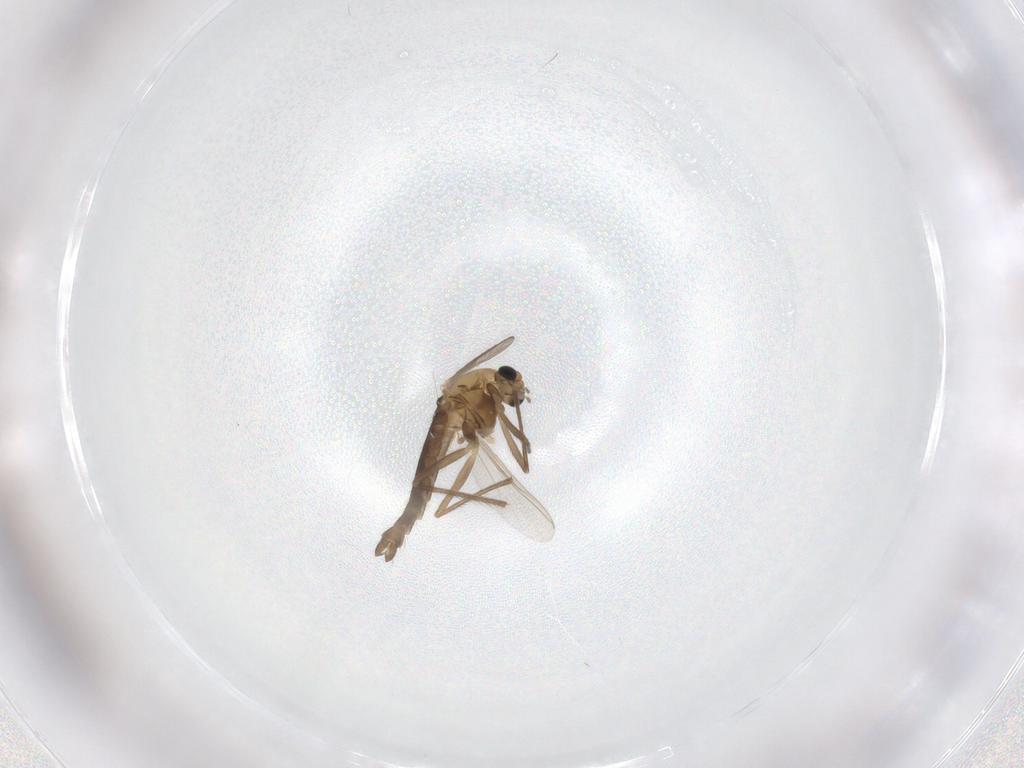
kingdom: Animalia
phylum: Arthropoda
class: Insecta
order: Diptera
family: Chironomidae
